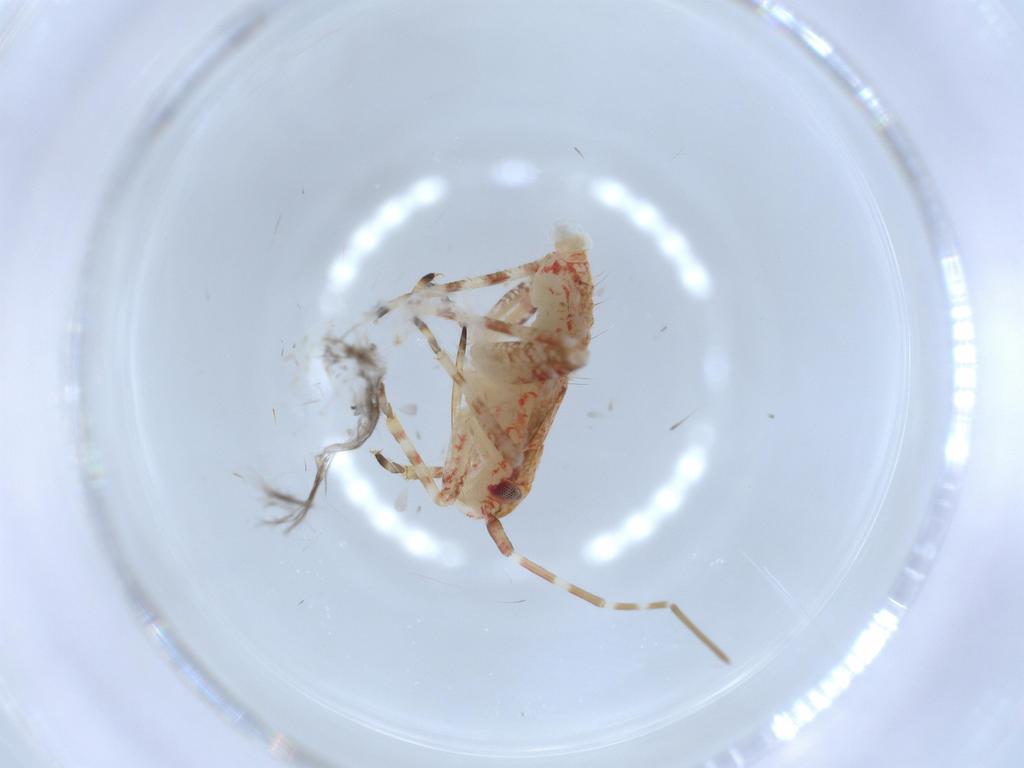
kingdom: Animalia
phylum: Arthropoda
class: Insecta
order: Hemiptera
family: Miridae
